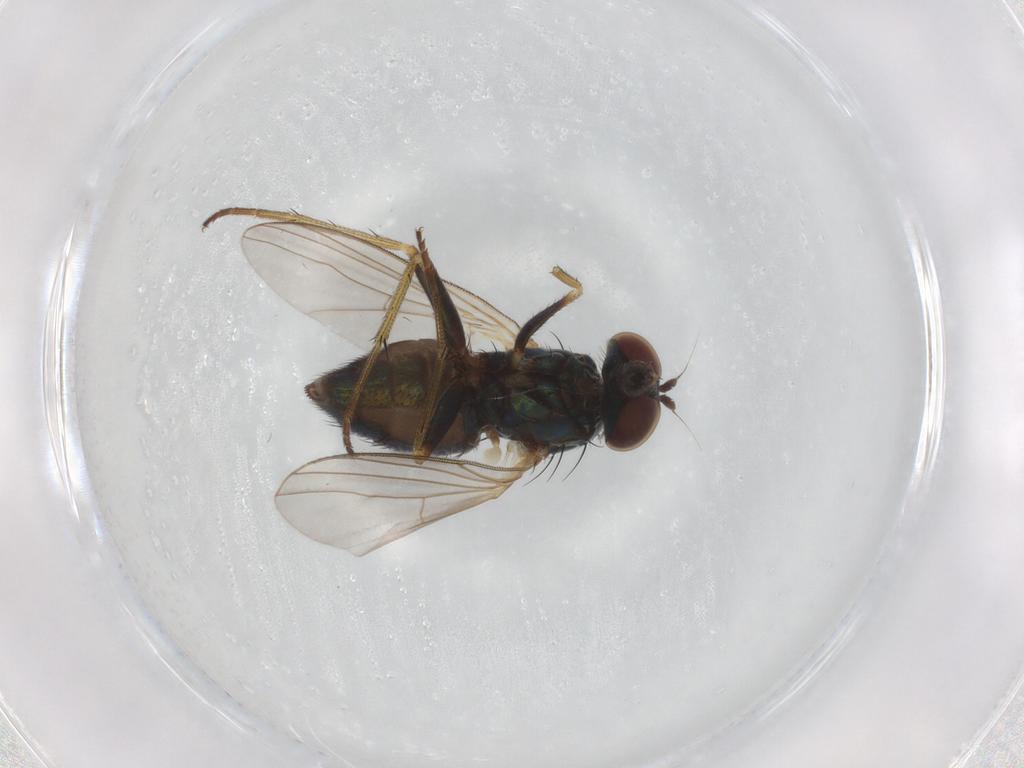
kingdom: Animalia
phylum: Arthropoda
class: Insecta
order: Diptera
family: Dolichopodidae
